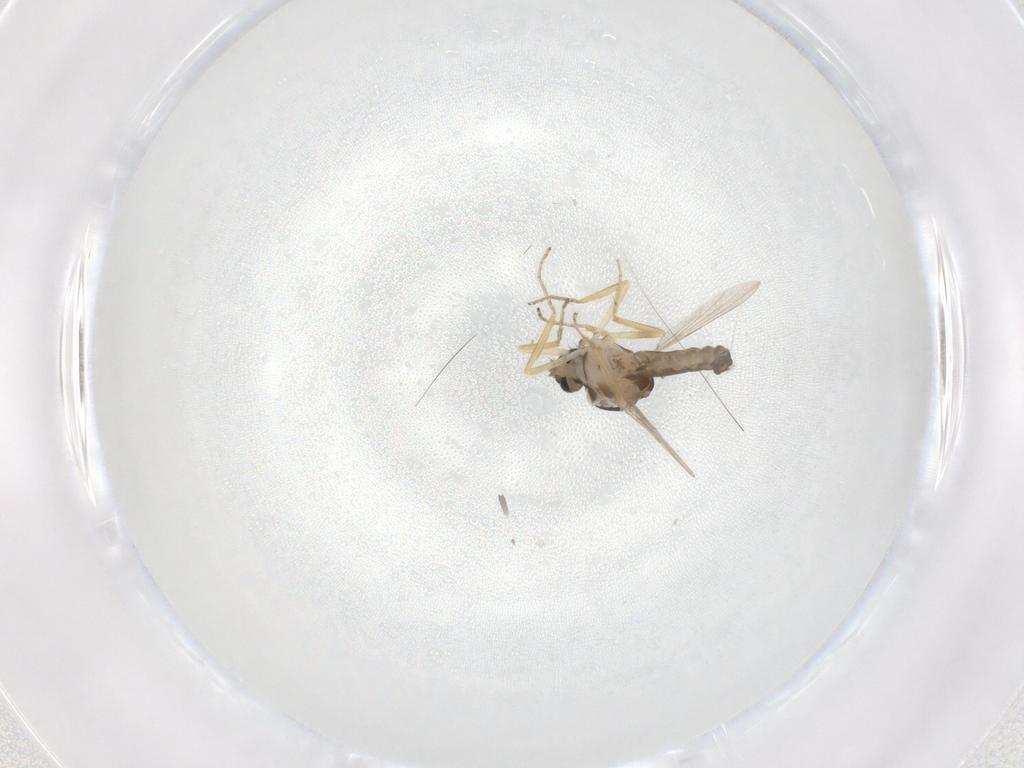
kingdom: Animalia
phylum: Arthropoda
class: Insecta
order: Diptera
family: Ceratopogonidae
